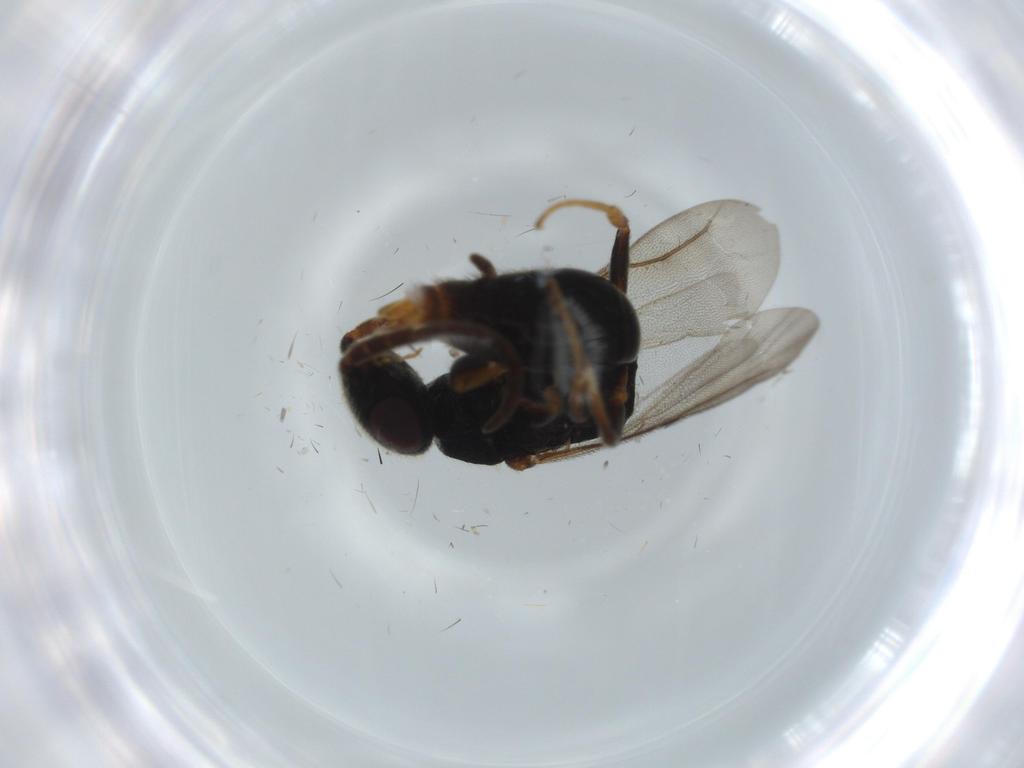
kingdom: Animalia
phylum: Arthropoda
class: Insecta
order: Hymenoptera
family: Bethylidae
